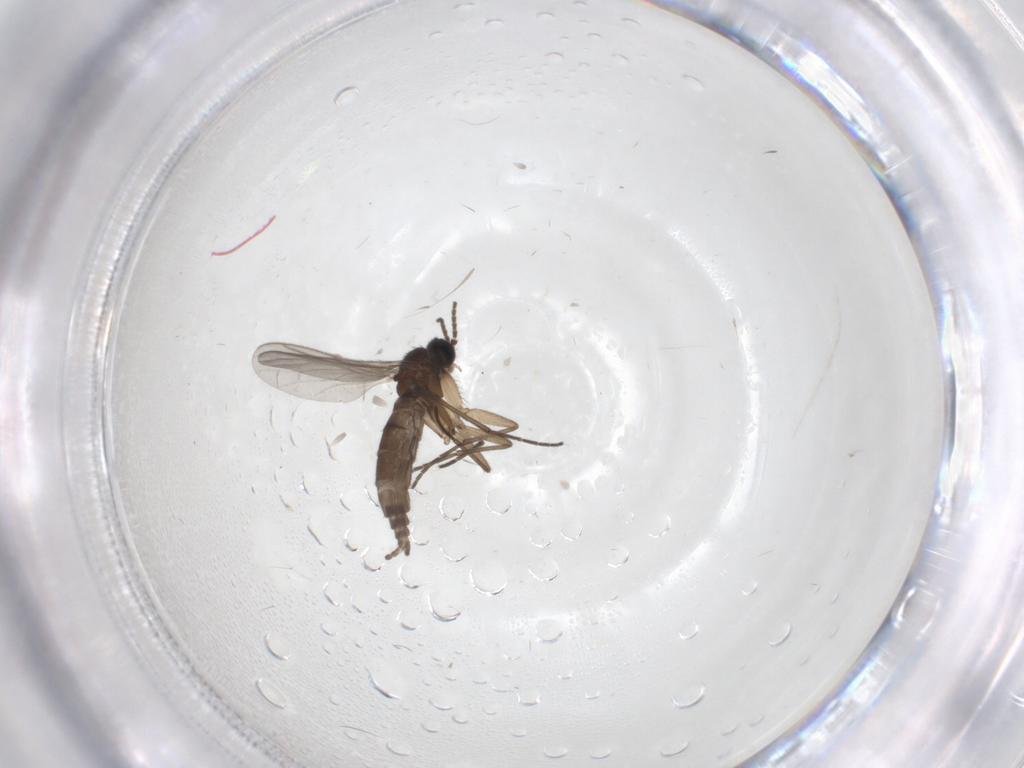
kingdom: Animalia
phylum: Arthropoda
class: Insecta
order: Diptera
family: Sciaridae
